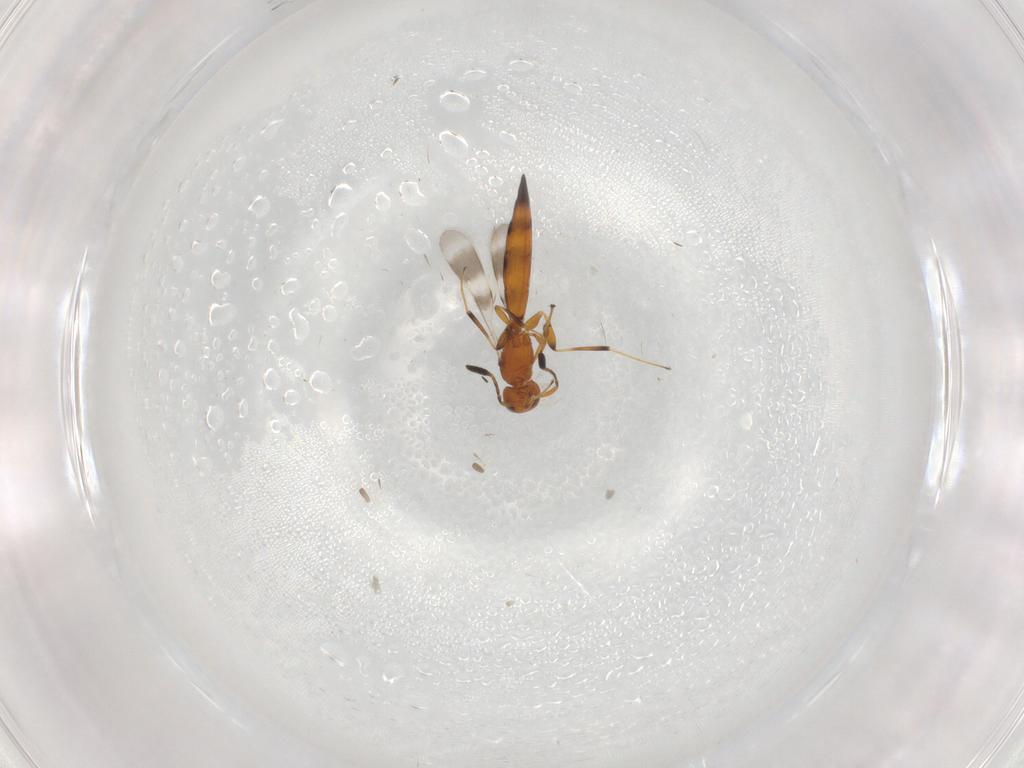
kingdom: Animalia
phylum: Arthropoda
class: Insecta
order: Hymenoptera
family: Scelionidae
